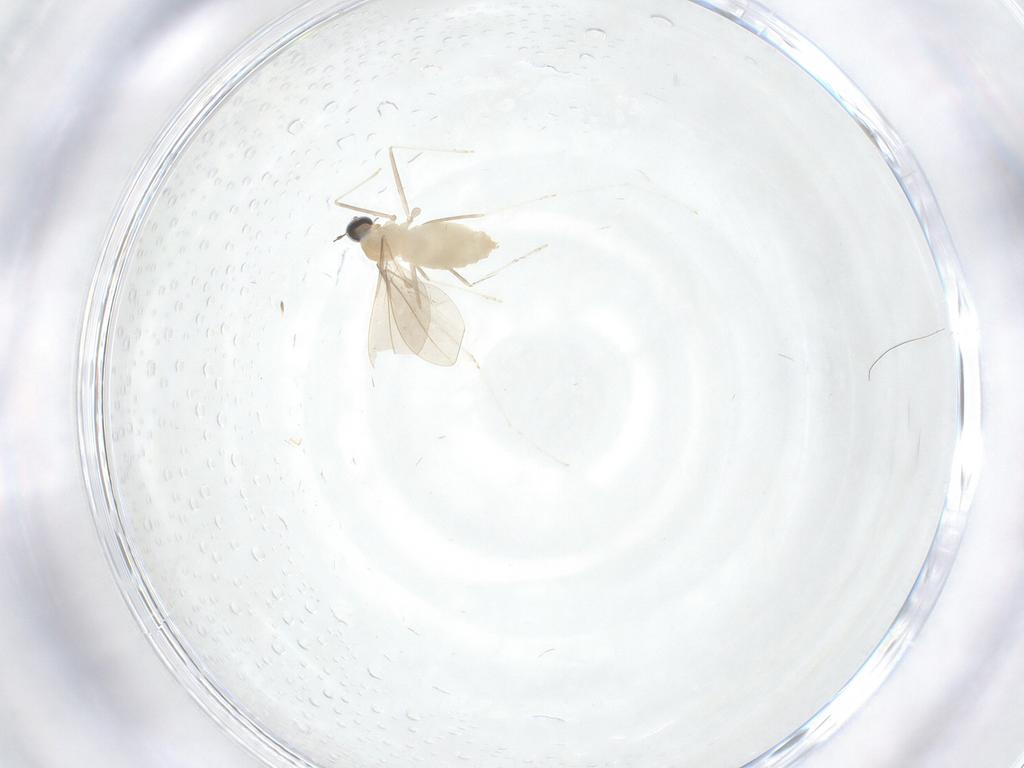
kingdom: Animalia
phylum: Arthropoda
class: Insecta
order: Diptera
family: Cecidomyiidae
